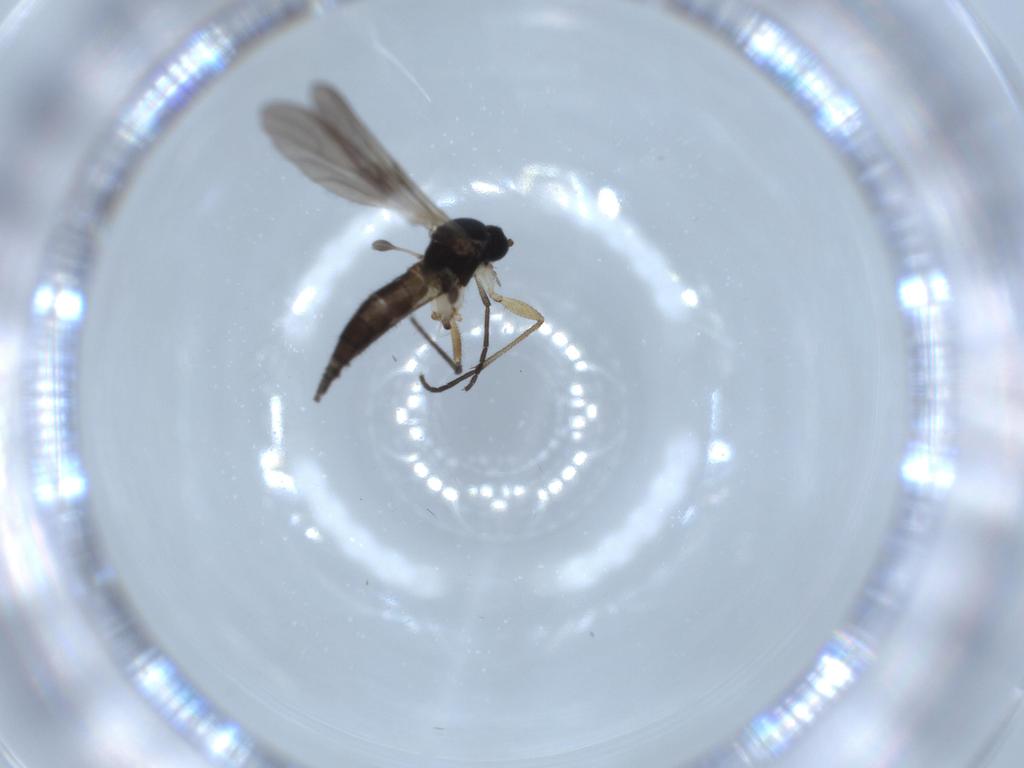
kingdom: Animalia
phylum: Arthropoda
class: Insecta
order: Diptera
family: Sciaridae
